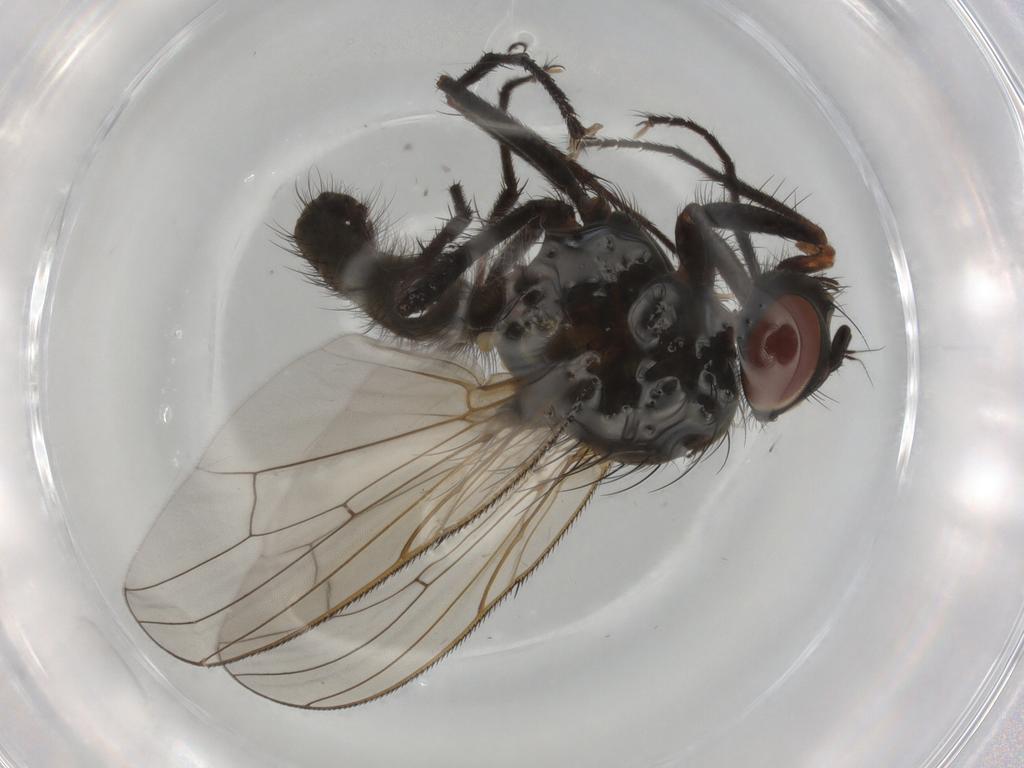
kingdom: Animalia
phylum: Arthropoda
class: Insecta
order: Diptera
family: Anthomyiidae
